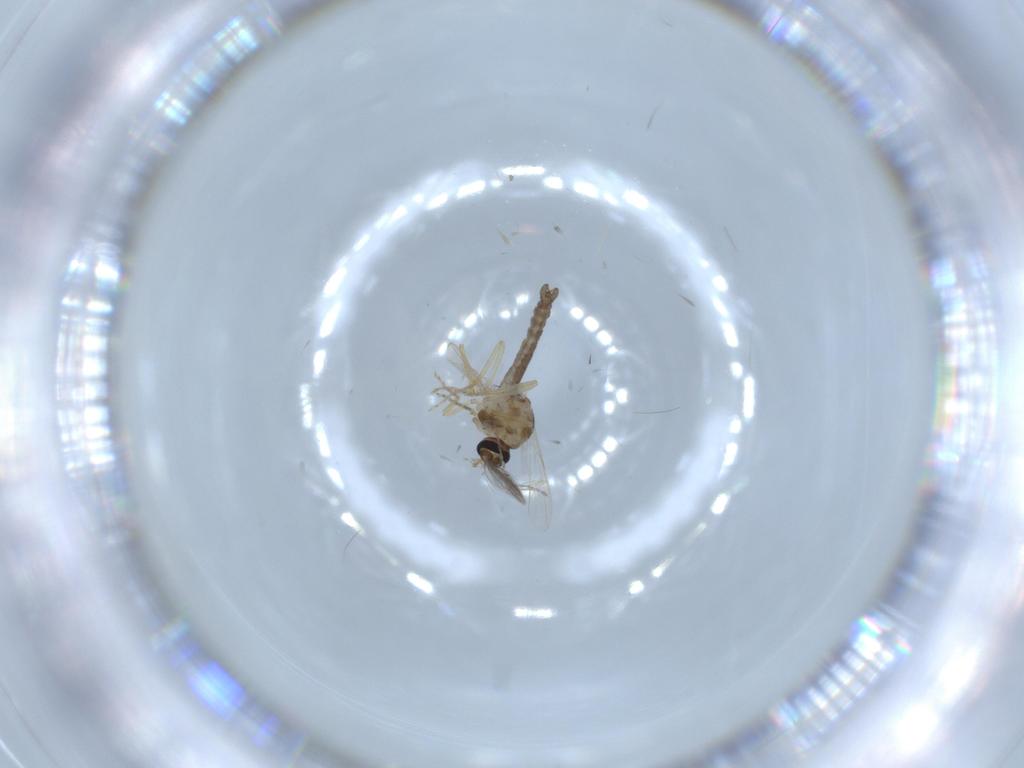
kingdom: Animalia
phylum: Arthropoda
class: Insecta
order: Diptera
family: Ceratopogonidae
